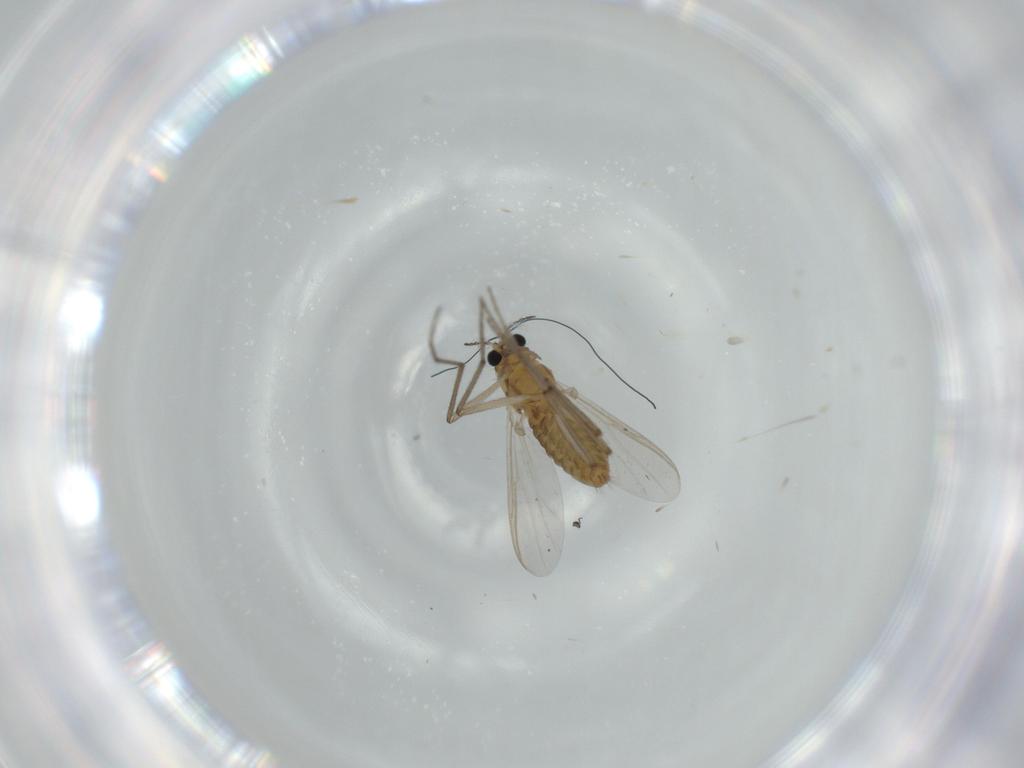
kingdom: Animalia
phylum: Arthropoda
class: Insecta
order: Diptera
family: Chironomidae
